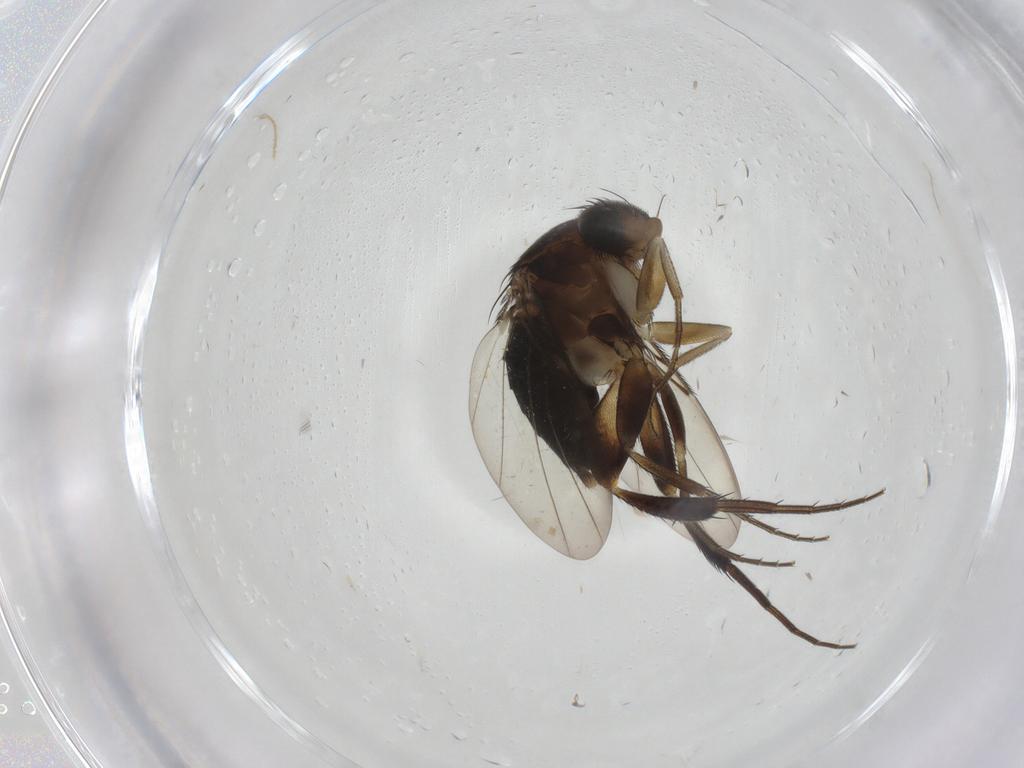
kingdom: Animalia
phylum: Arthropoda
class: Insecta
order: Diptera
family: Phoridae
